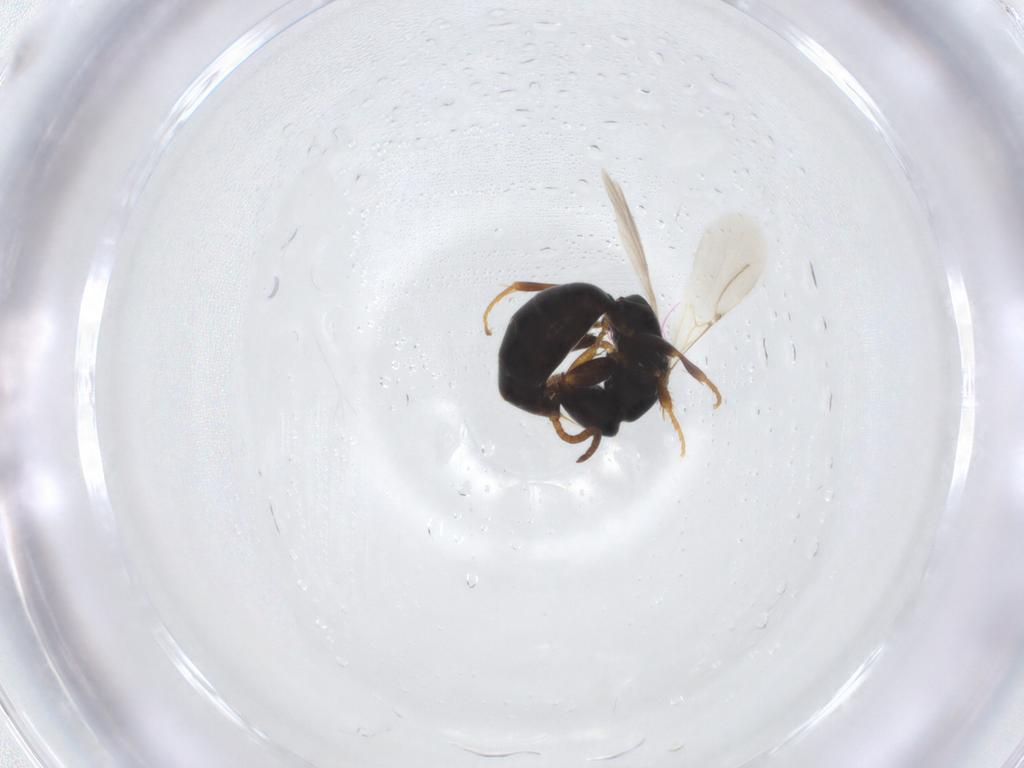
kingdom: Animalia
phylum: Arthropoda
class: Insecta
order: Hymenoptera
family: Bethylidae
